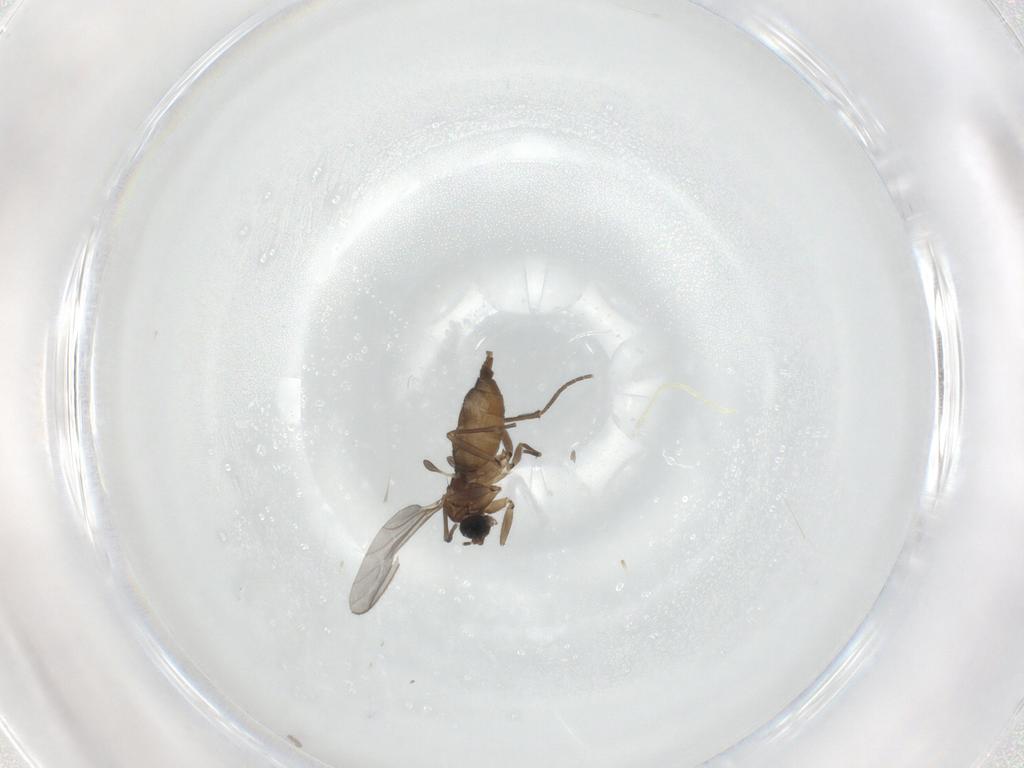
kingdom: Animalia
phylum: Arthropoda
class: Insecta
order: Diptera
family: Sciaridae
